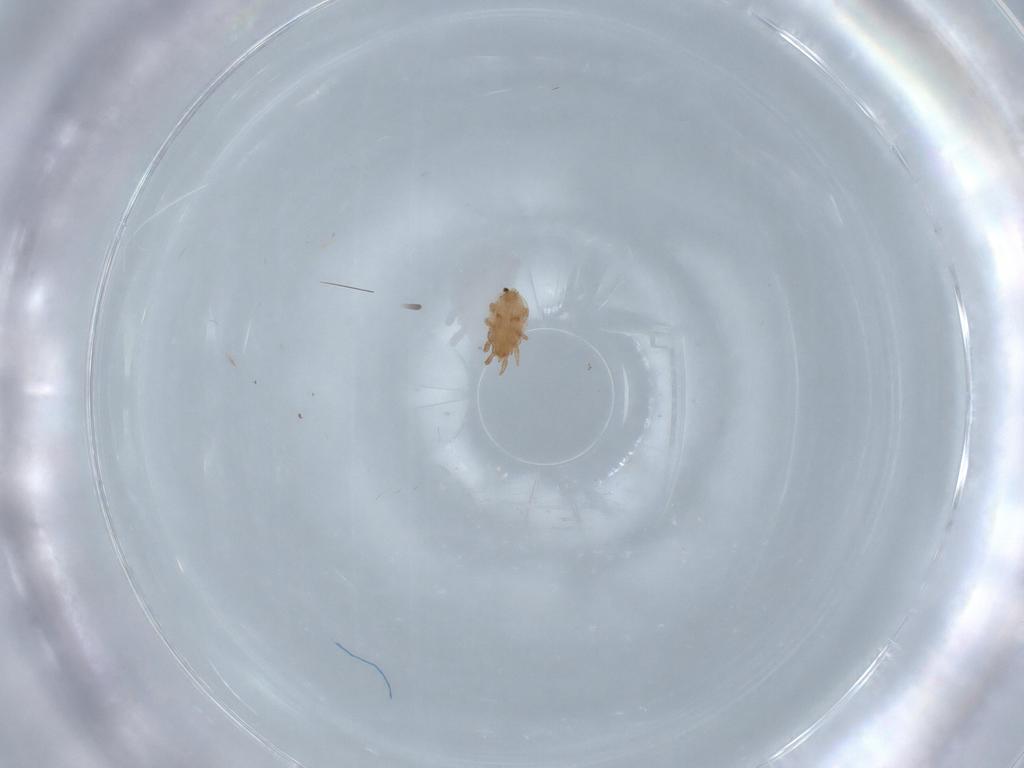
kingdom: Animalia
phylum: Arthropoda
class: Arachnida
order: Mesostigmata
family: Dinychidae
